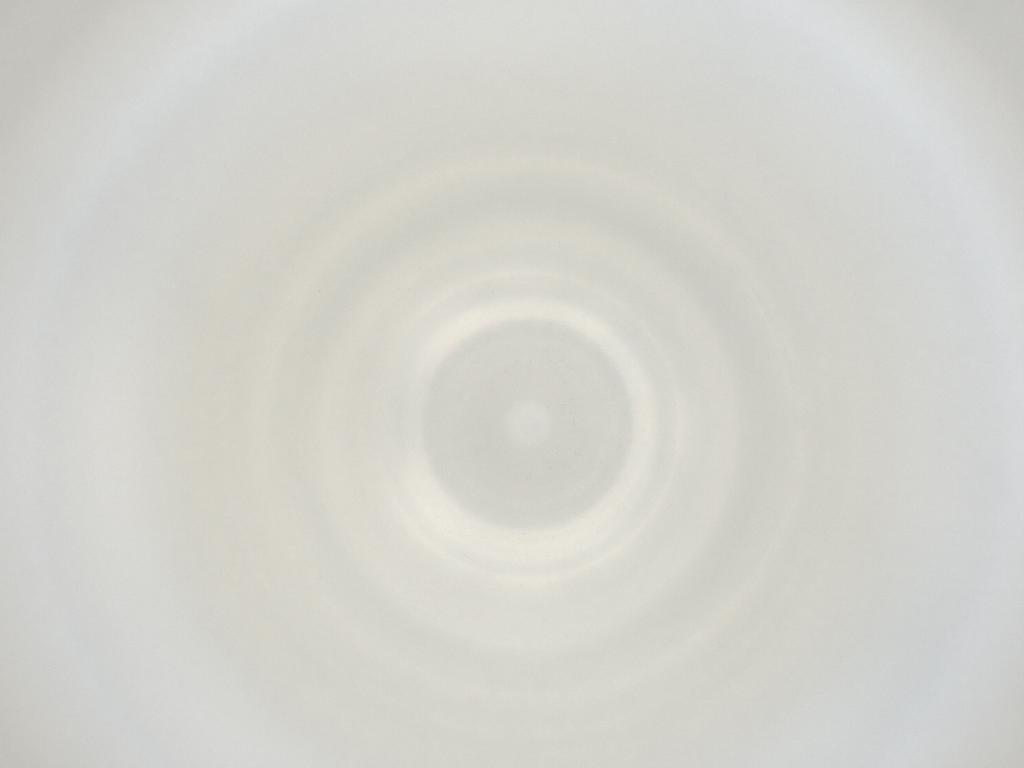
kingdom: Animalia
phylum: Arthropoda
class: Insecta
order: Diptera
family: Cecidomyiidae
